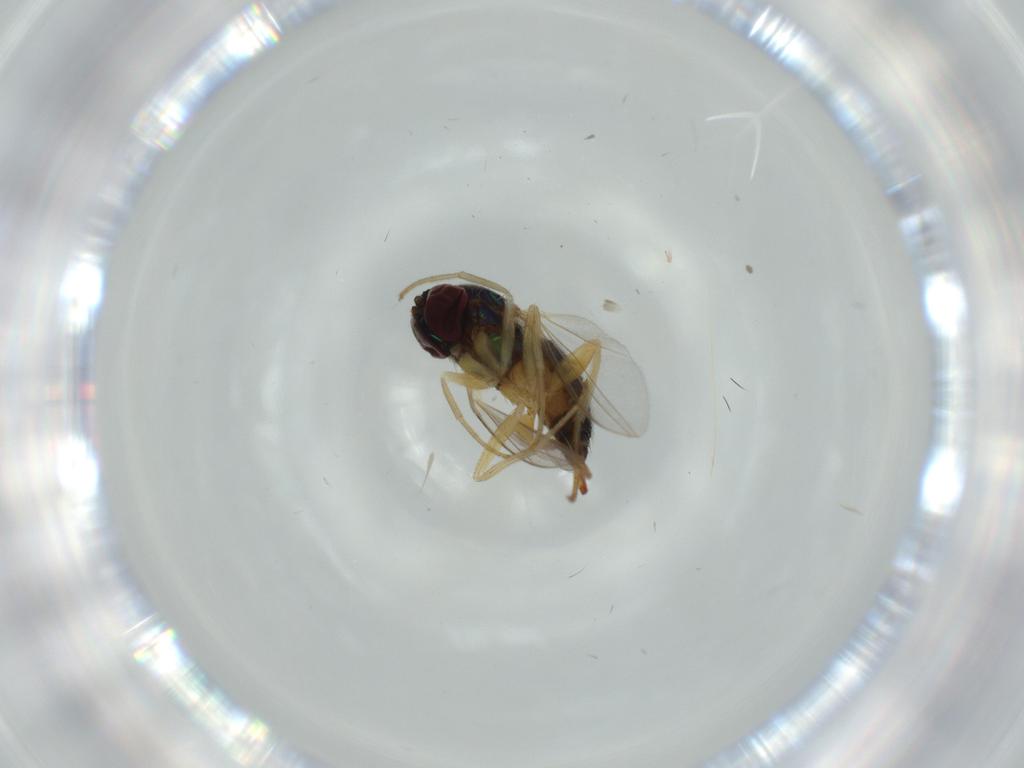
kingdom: Animalia
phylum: Arthropoda
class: Insecta
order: Diptera
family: Dolichopodidae
